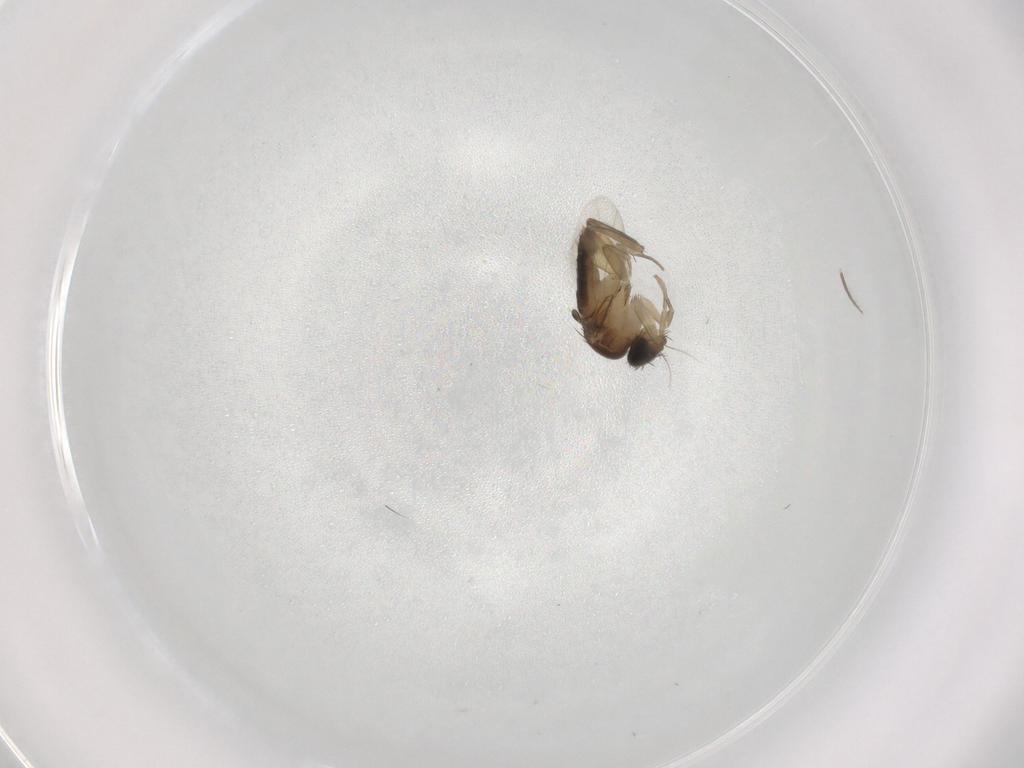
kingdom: Animalia
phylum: Arthropoda
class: Insecta
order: Diptera
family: Phoridae
